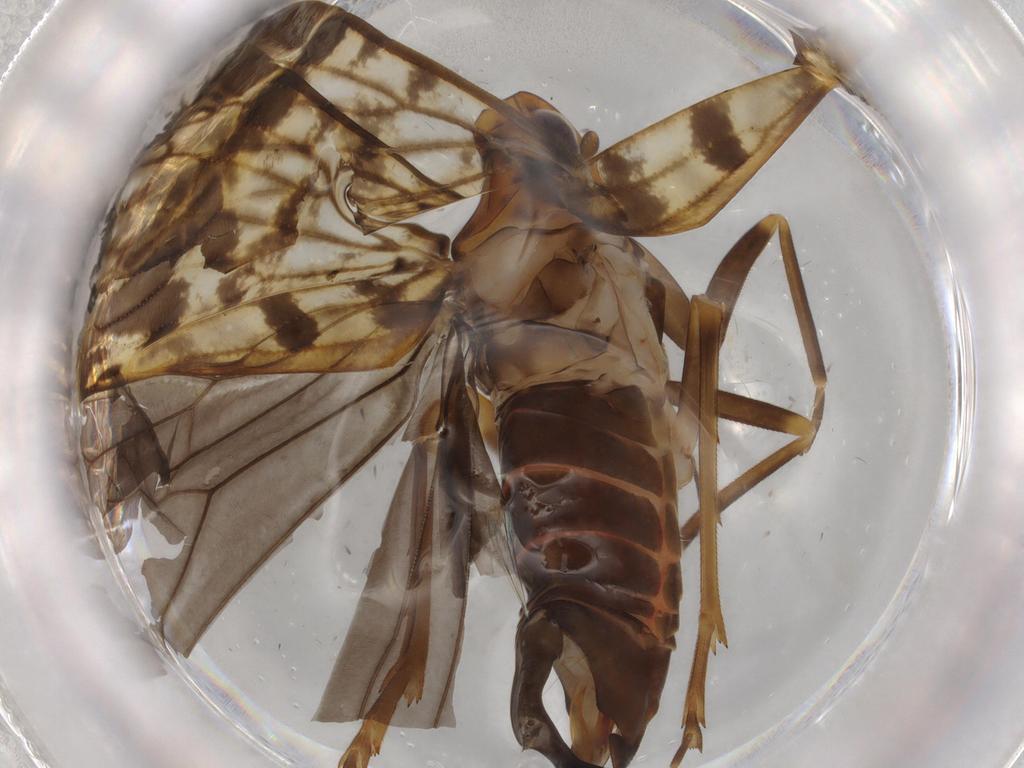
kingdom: Animalia
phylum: Arthropoda
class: Insecta
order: Hemiptera
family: Cixiidae
